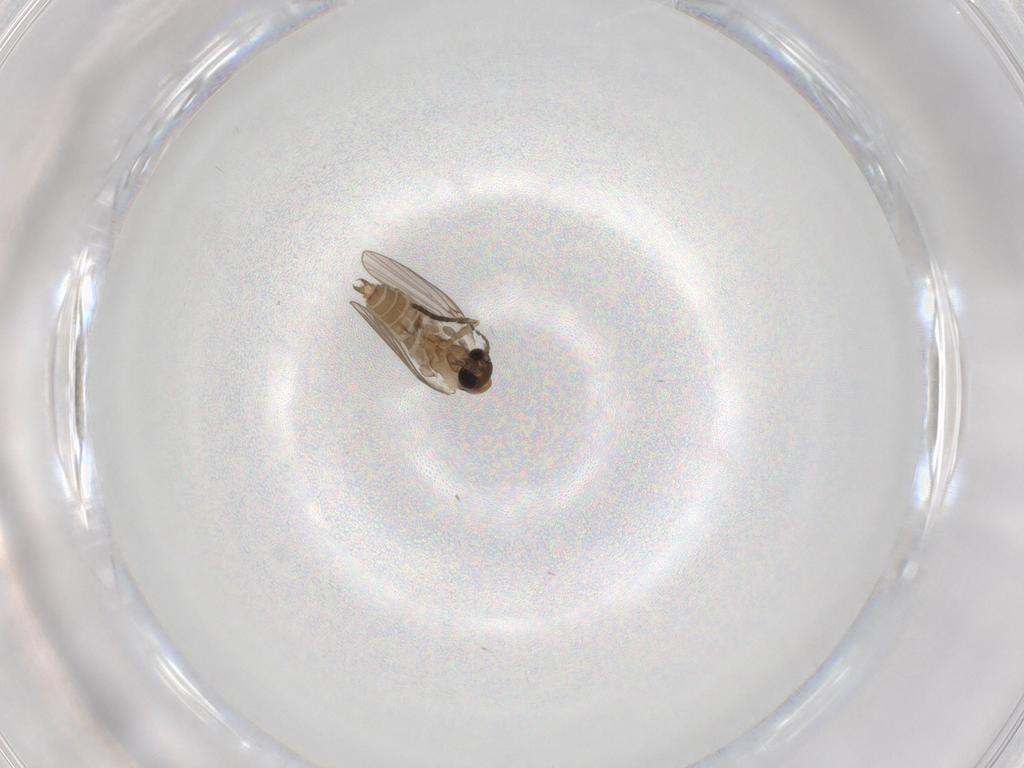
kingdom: Animalia
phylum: Arthropoda
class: Insecta
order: Diptera
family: Psychodidae
